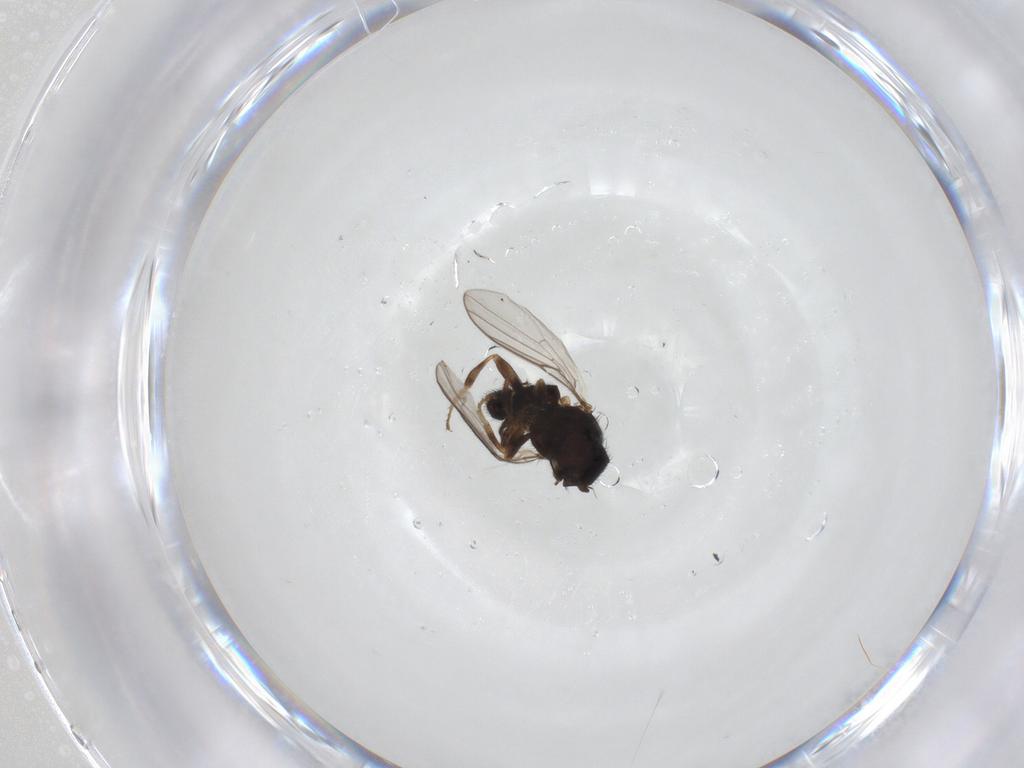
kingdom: Animalia
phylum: Arthropoda
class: Insecta
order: Diptera
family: Chloropidae
